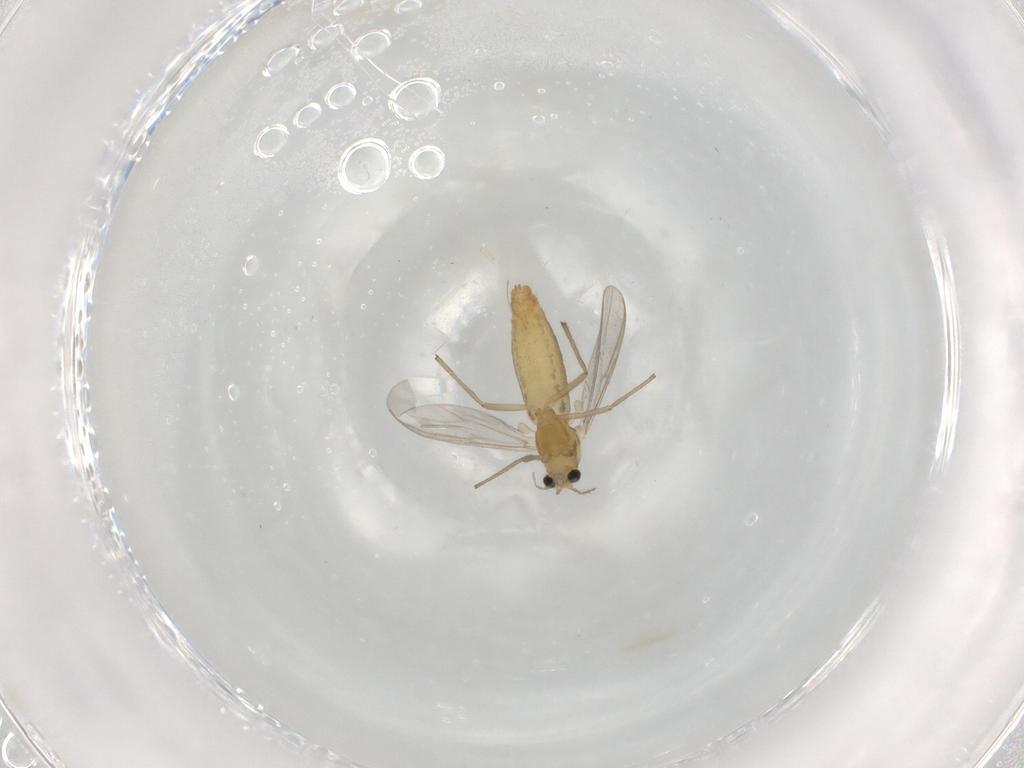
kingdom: Animalia
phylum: Arthropoda
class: Insecta
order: Diptera
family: Chironomidae
